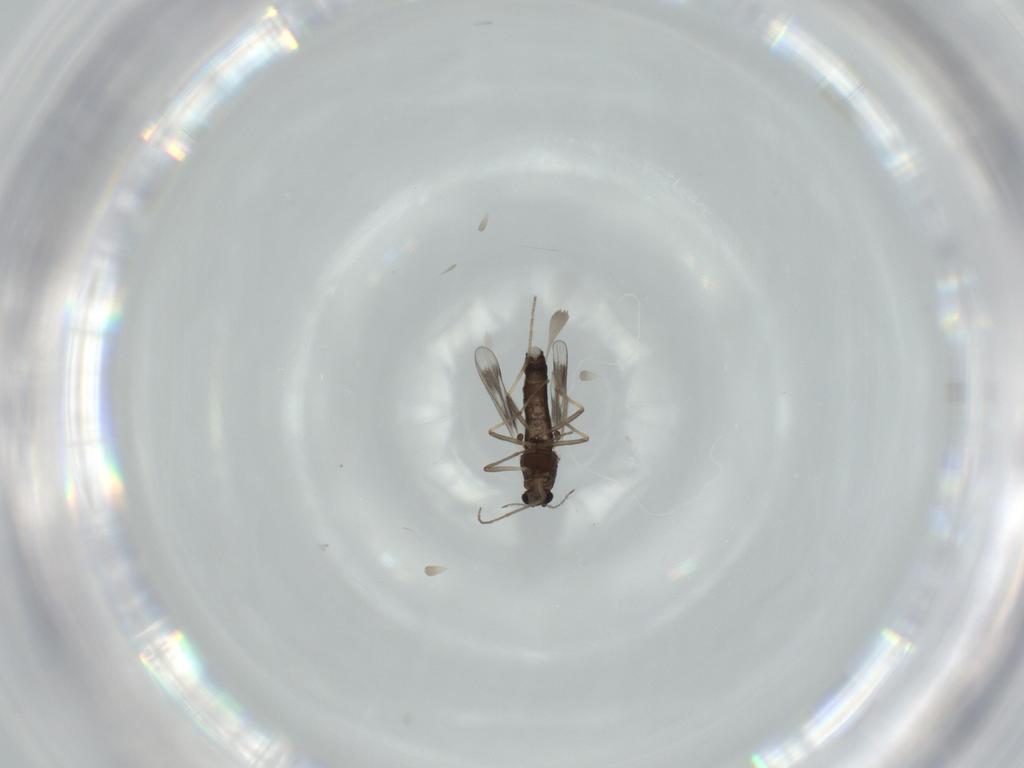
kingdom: Animalia
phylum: Arthropoda
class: Insecta
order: Diptera
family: Chironomidae
